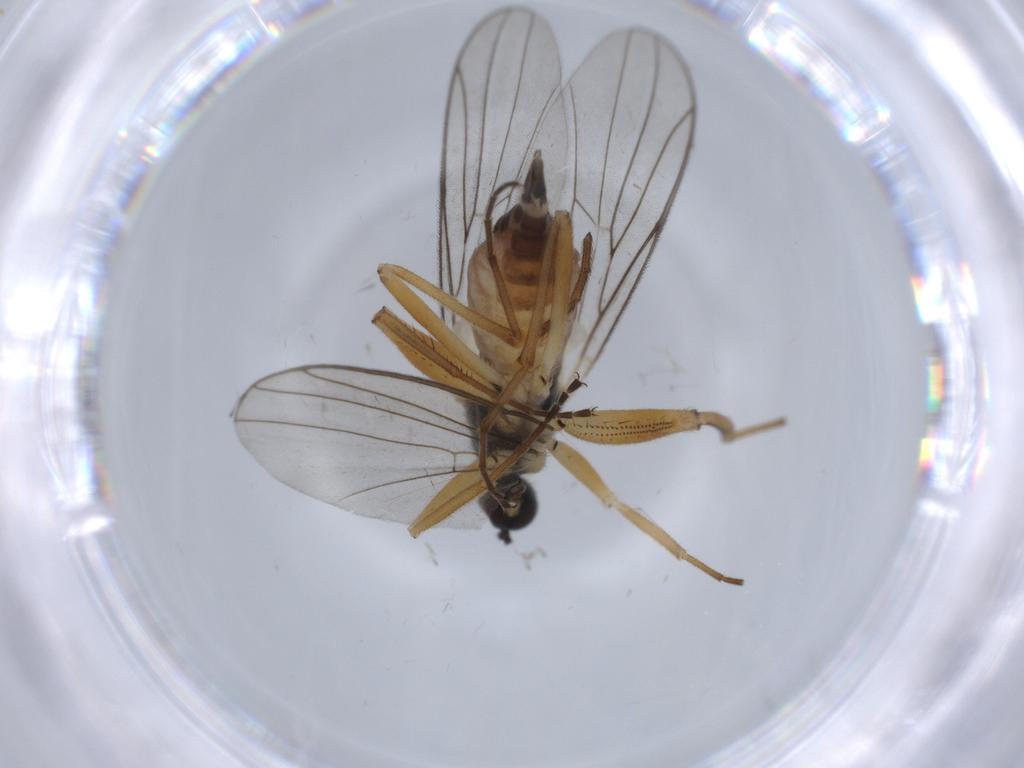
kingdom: Animalia
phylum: Arthropoda
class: Insecta
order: Diptera
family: Hybotidae
